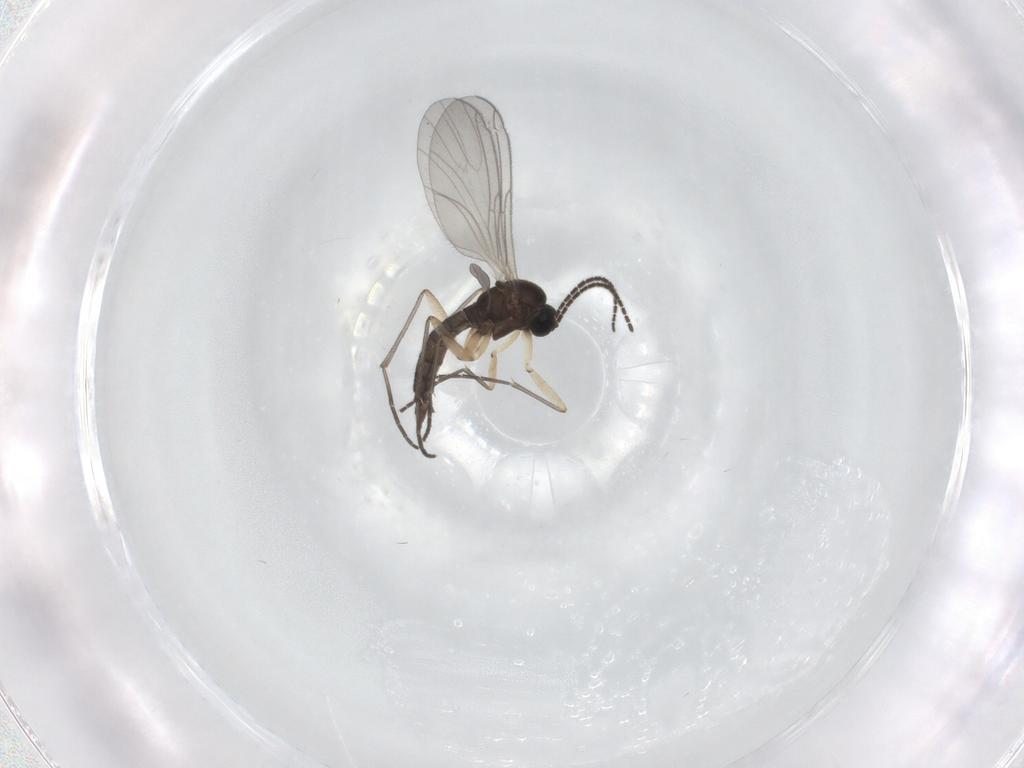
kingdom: Animalia
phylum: Arthropoda
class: Insecta
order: Diptera
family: Sciaridae
